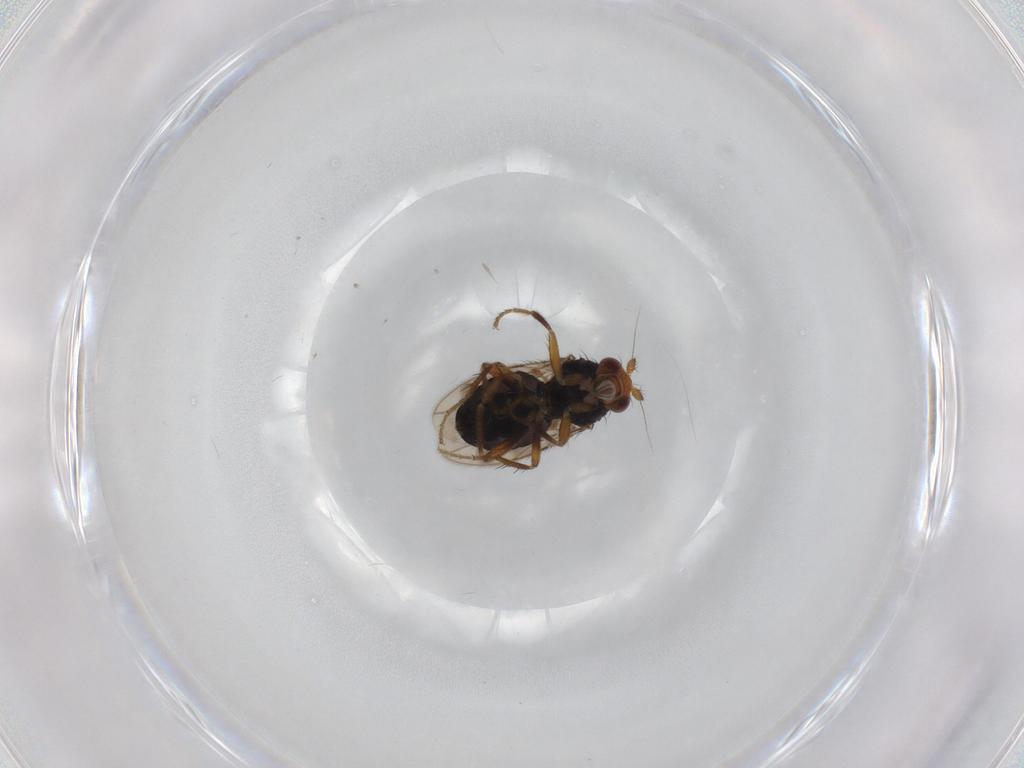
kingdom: Animalia
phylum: Arthropoda
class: Insecta
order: Diptera
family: Sphaeroceridae
